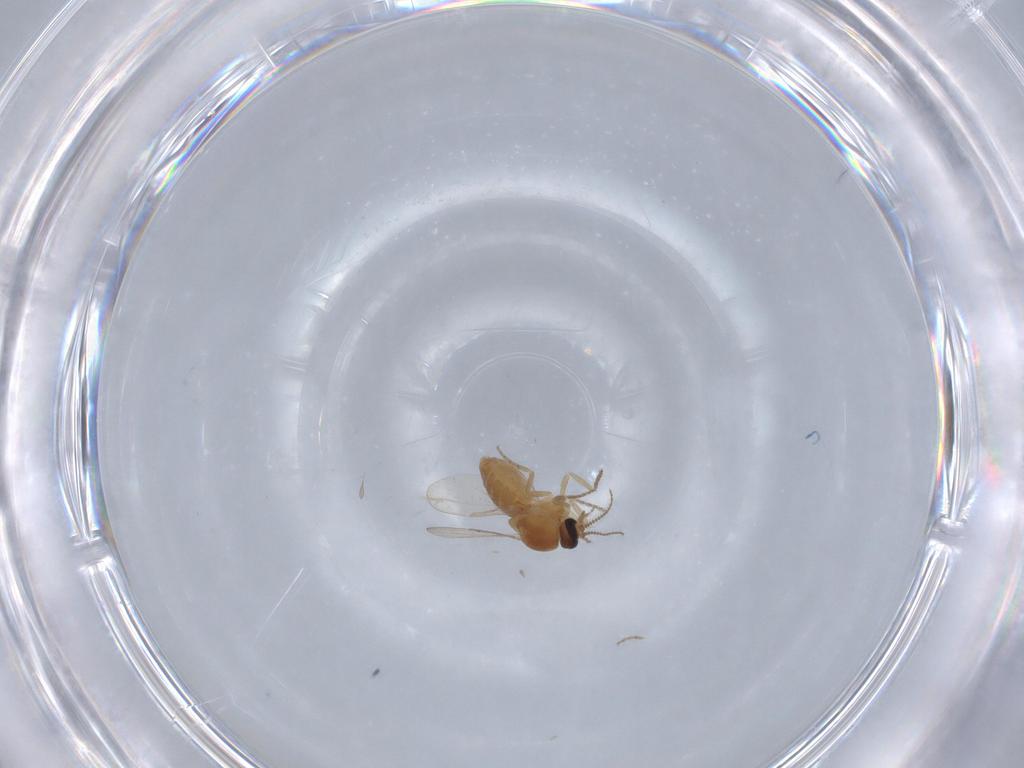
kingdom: Animalia
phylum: Arthropoda
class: Insecta
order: Diptera
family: Ceratopogonidae
